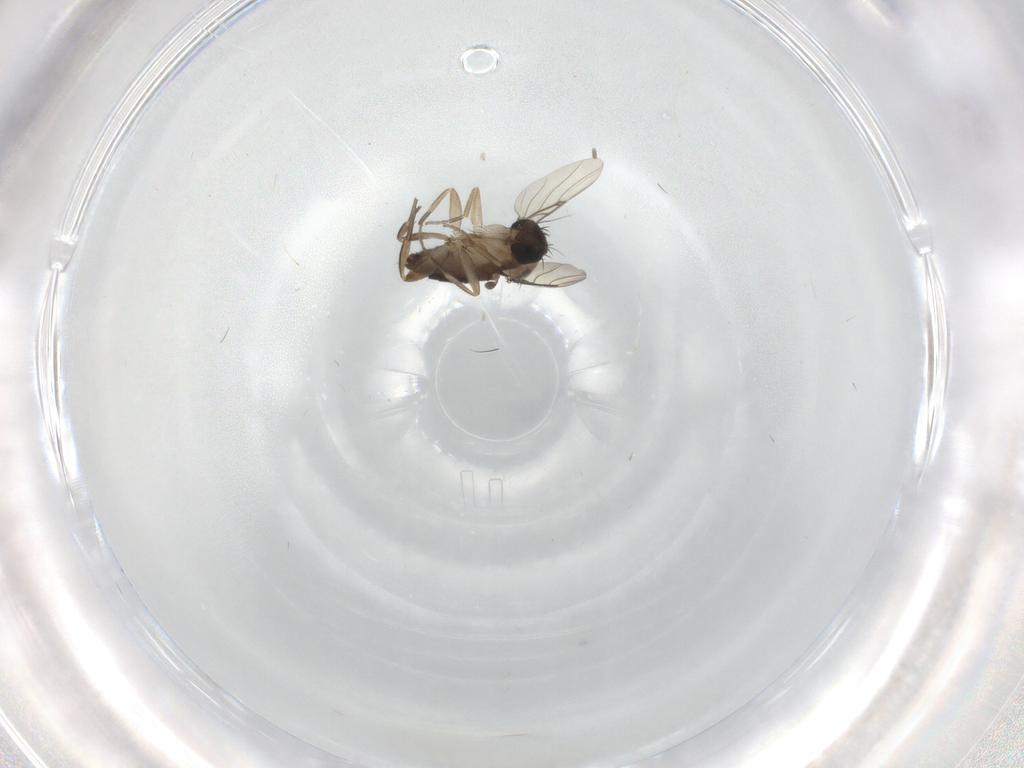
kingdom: Animalia
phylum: Arthropoda
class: Insecta
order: Diptera
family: Phoridae
